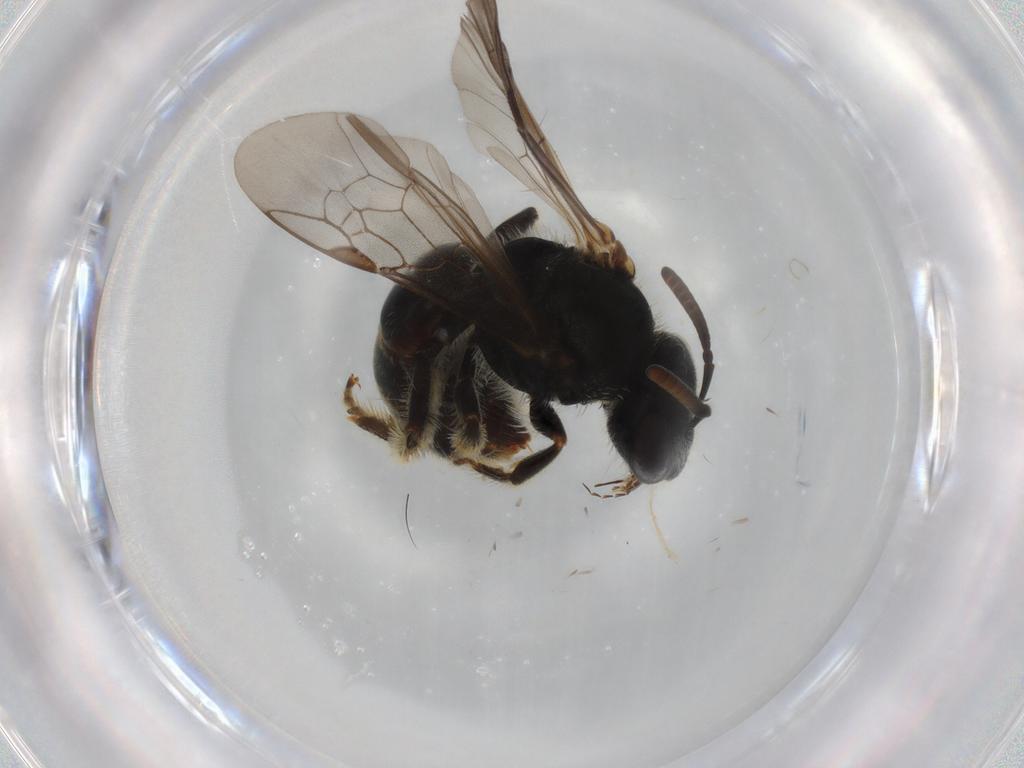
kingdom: Animalia
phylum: Arthropoda
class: Insecta
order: Hymenoptera
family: Halictidae
